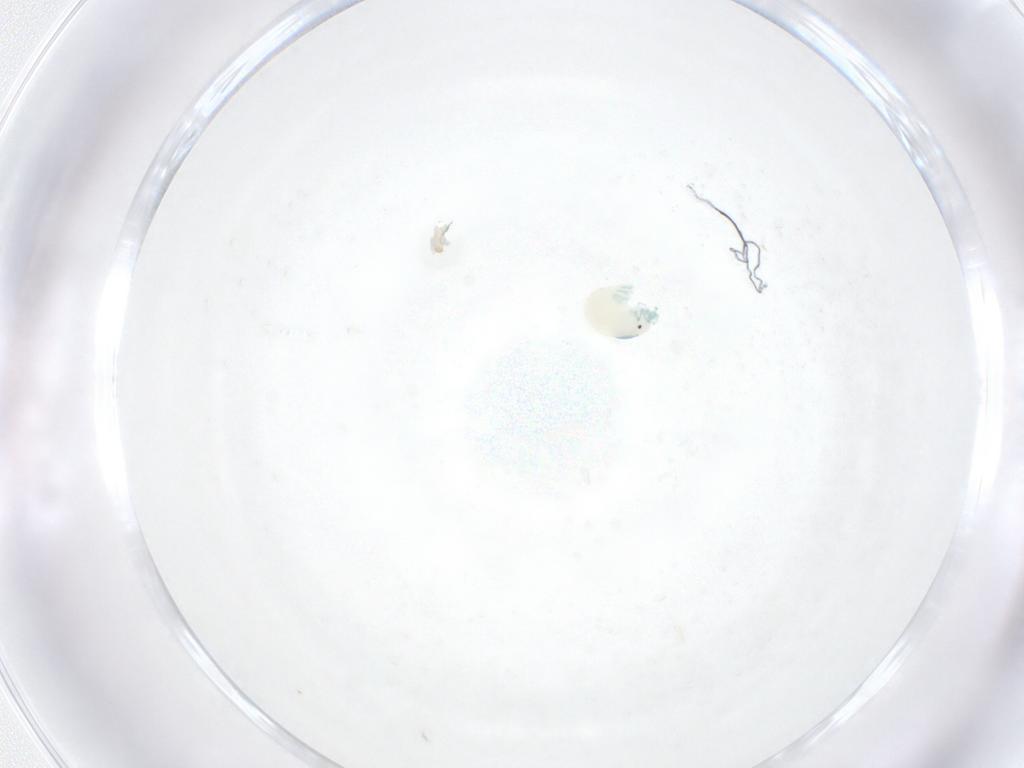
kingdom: Animalia
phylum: Arthropoda
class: Arachnida
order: Trombidiformes
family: Arrenuridae
